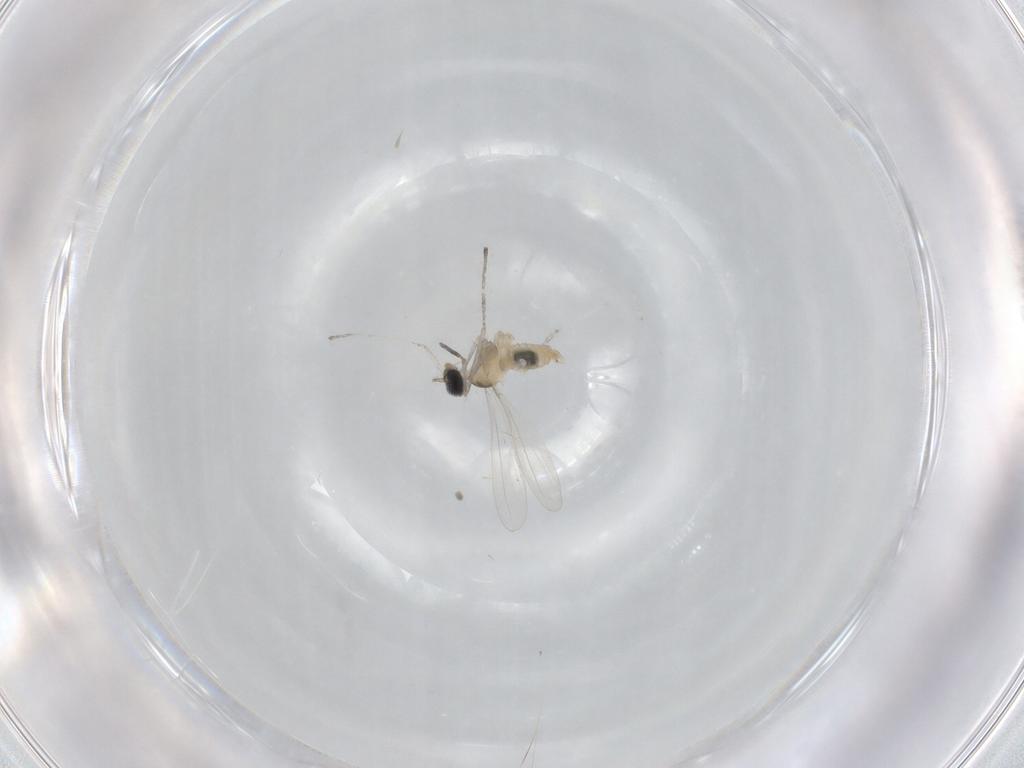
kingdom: Animalia
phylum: Arthropoda
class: Insecta
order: Diptera
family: Cecidomyiidae
